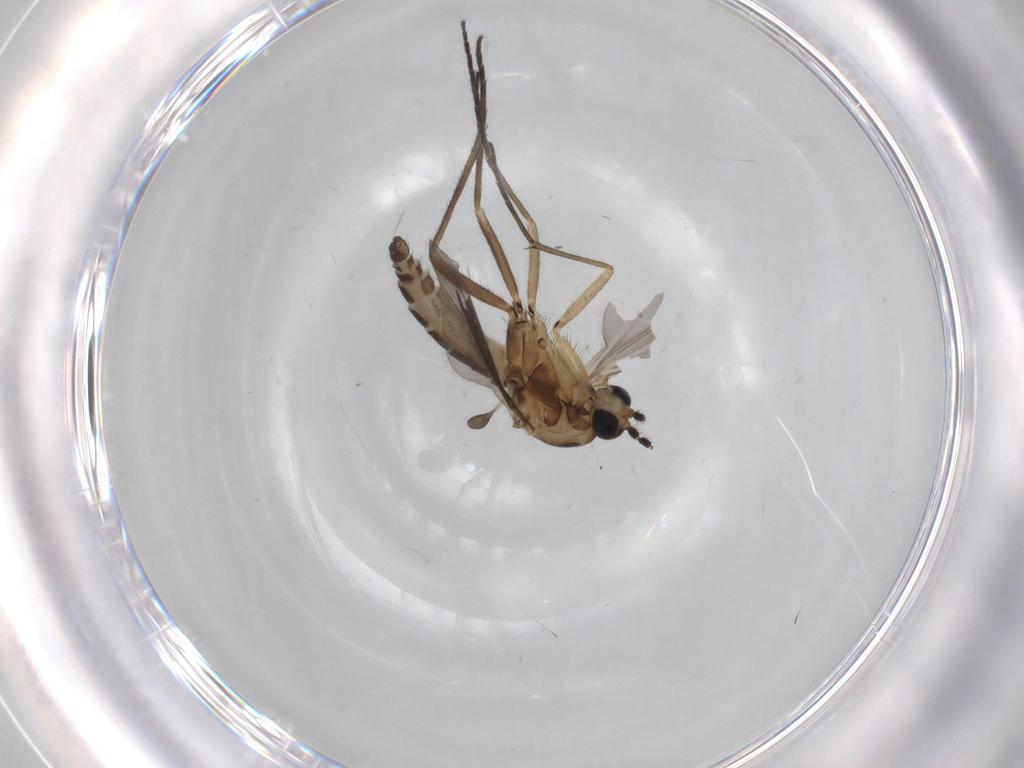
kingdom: Animalia
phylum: Arthropoda
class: Insecta
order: Diptera
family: Sciaridae
